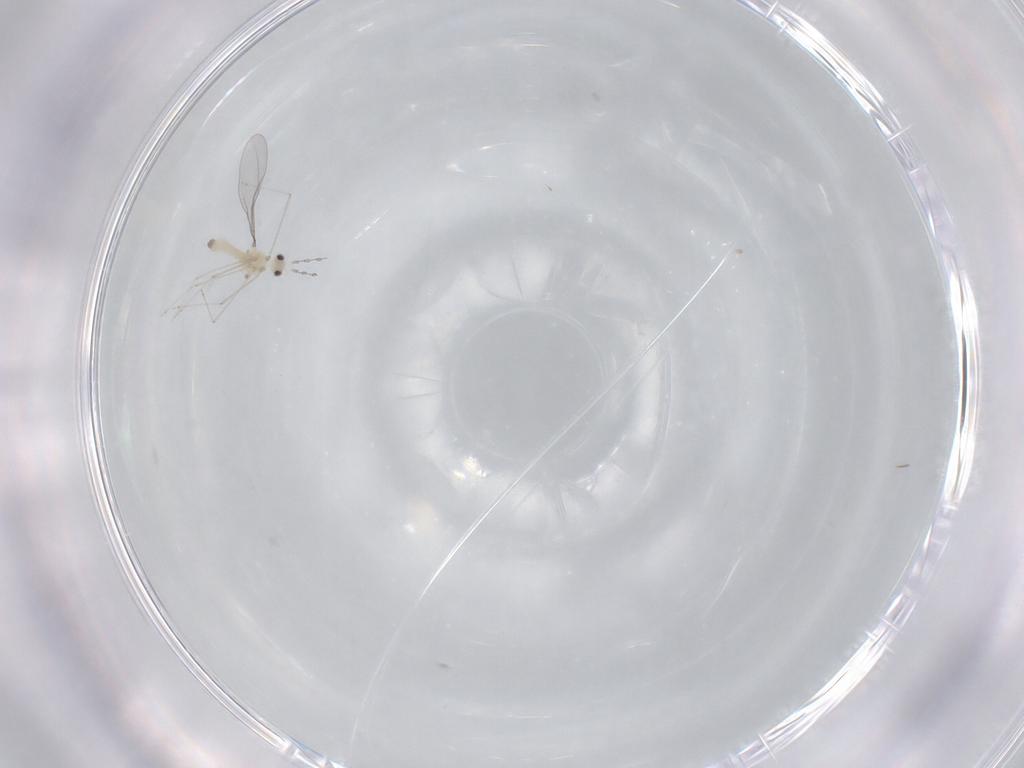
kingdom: Animalia
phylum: Arthropoda
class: Insecta
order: Diptera
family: Cecidomyiidae
